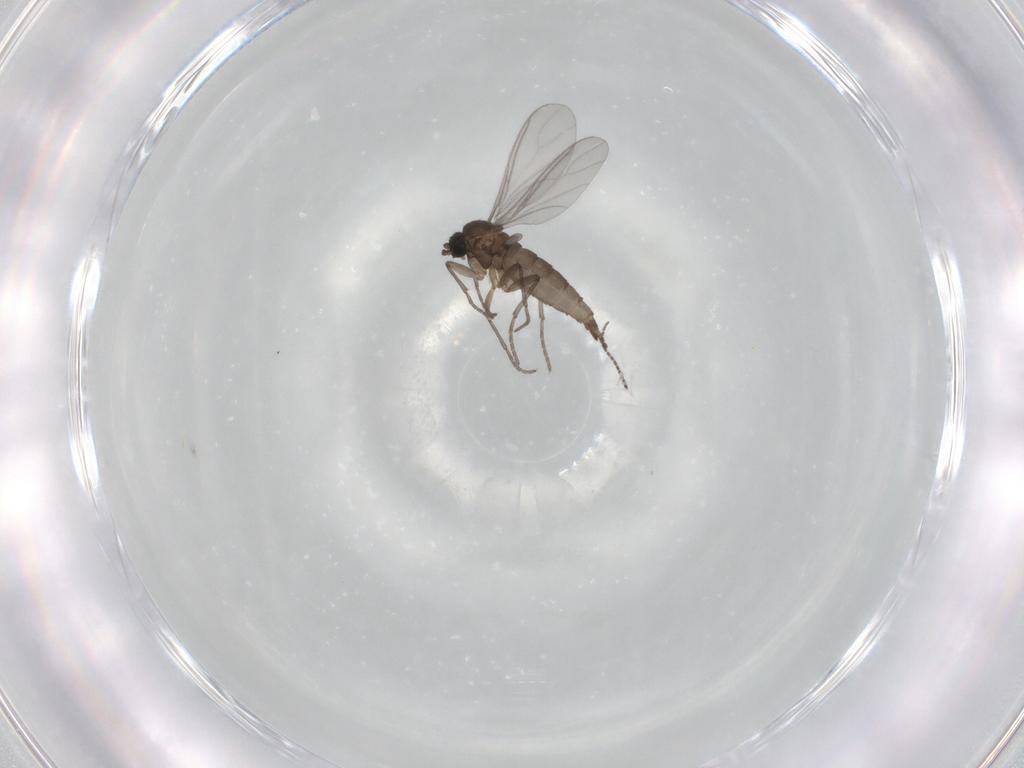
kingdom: Animalia
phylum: Arthropoda
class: Insecta
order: Diptera
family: Sciaridae
